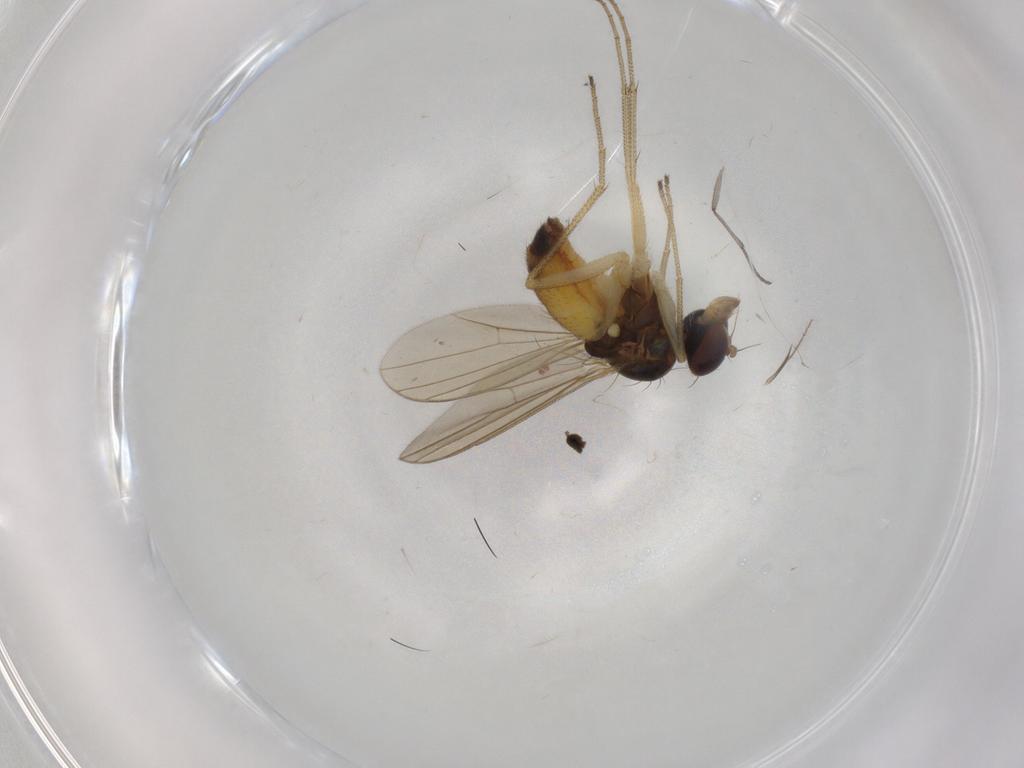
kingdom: Animalia
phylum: Arthropoda
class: Insecta
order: Diptera
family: Dolichopodidae
